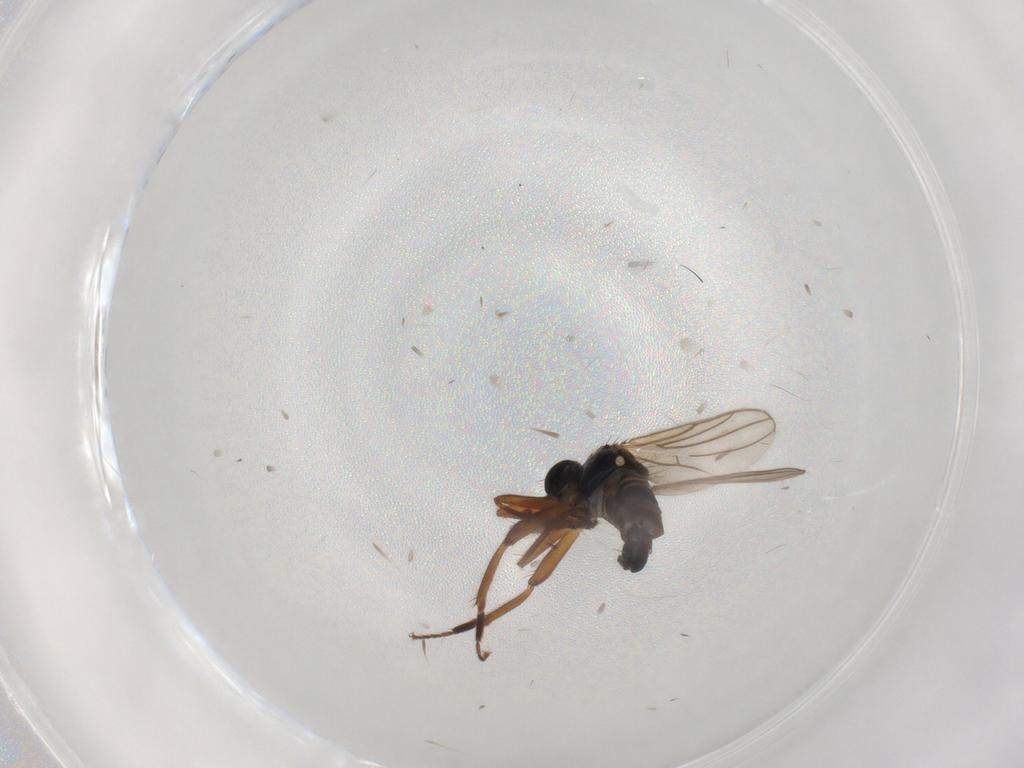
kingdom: Animalia
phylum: Arthropoda
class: Insecta
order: Diptera
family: Hybotidae
